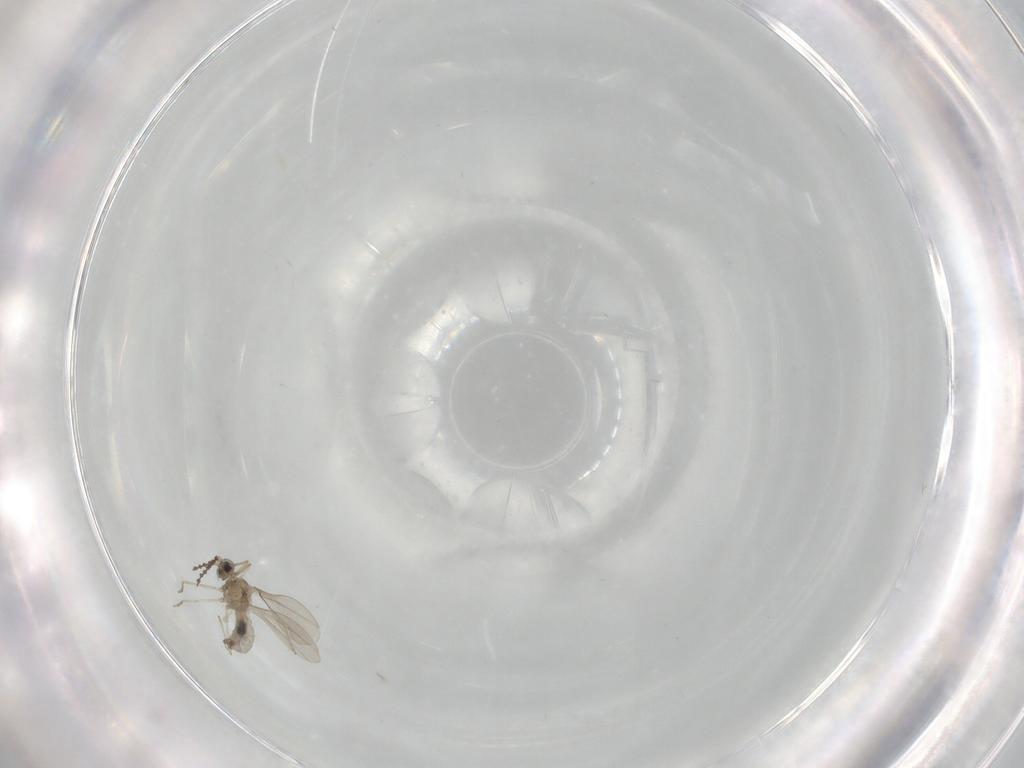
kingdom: Animalia
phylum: Arthropoda
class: Insecta
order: Diptera
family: Cecidomyiidae
